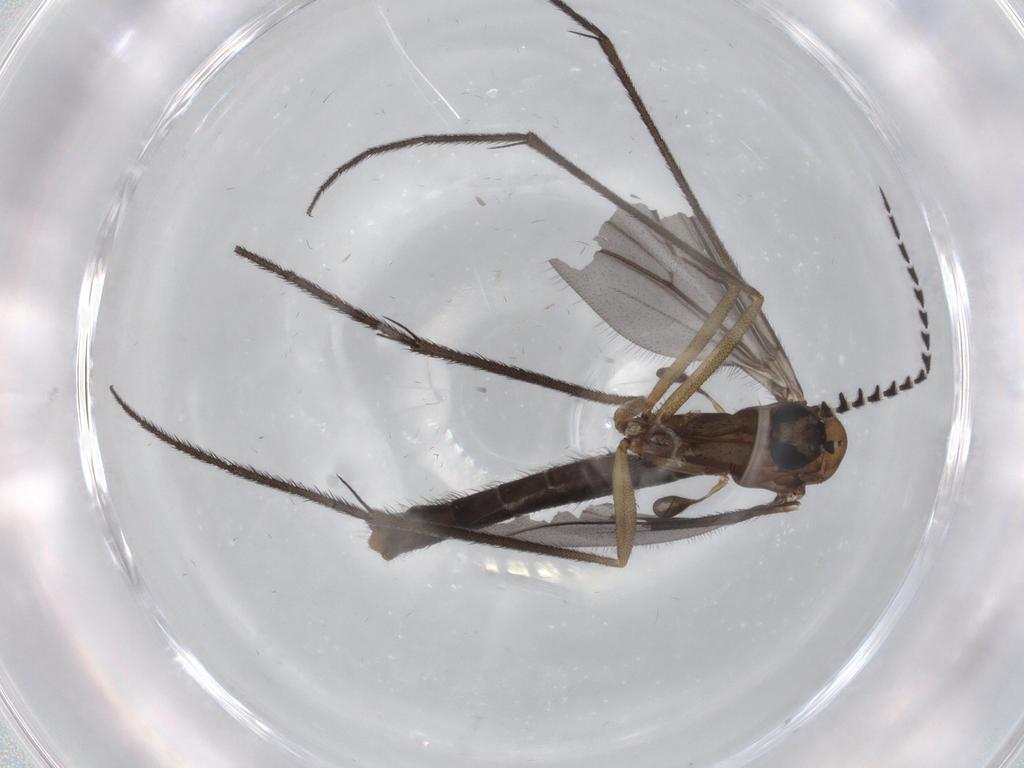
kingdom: Animalia
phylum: Arthropoda
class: Insecta
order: Diptera
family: Ditomyiidae
